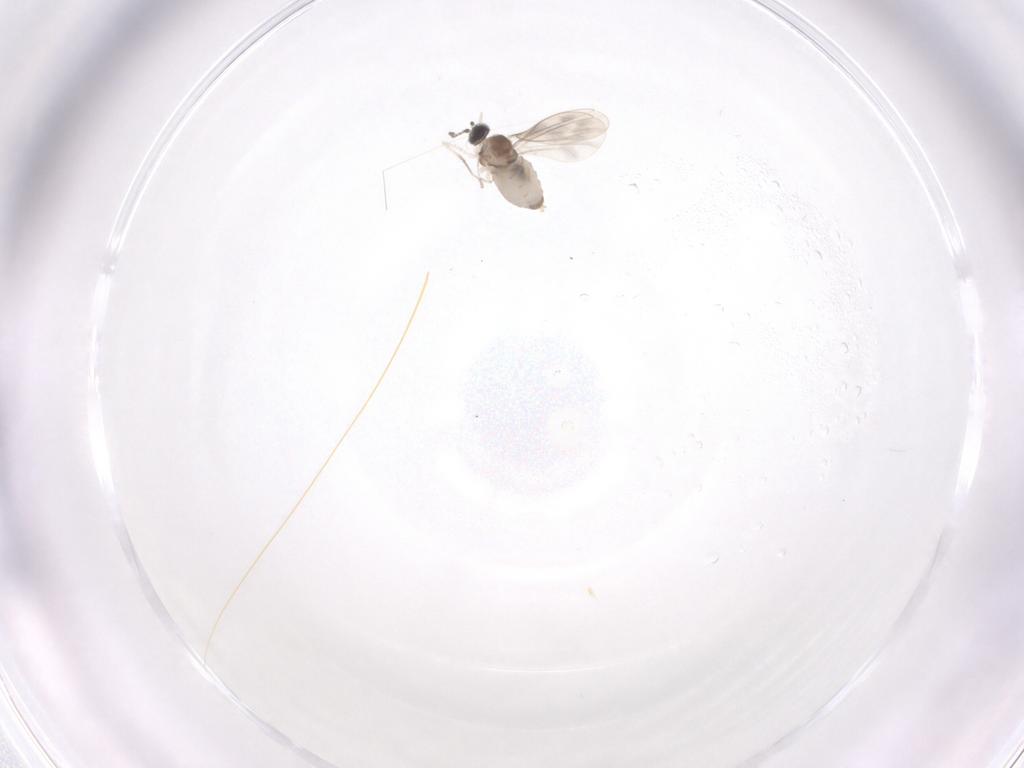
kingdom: Animalia
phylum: Arthropoda
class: Insecta
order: Diptera
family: Cecidomyiidae
